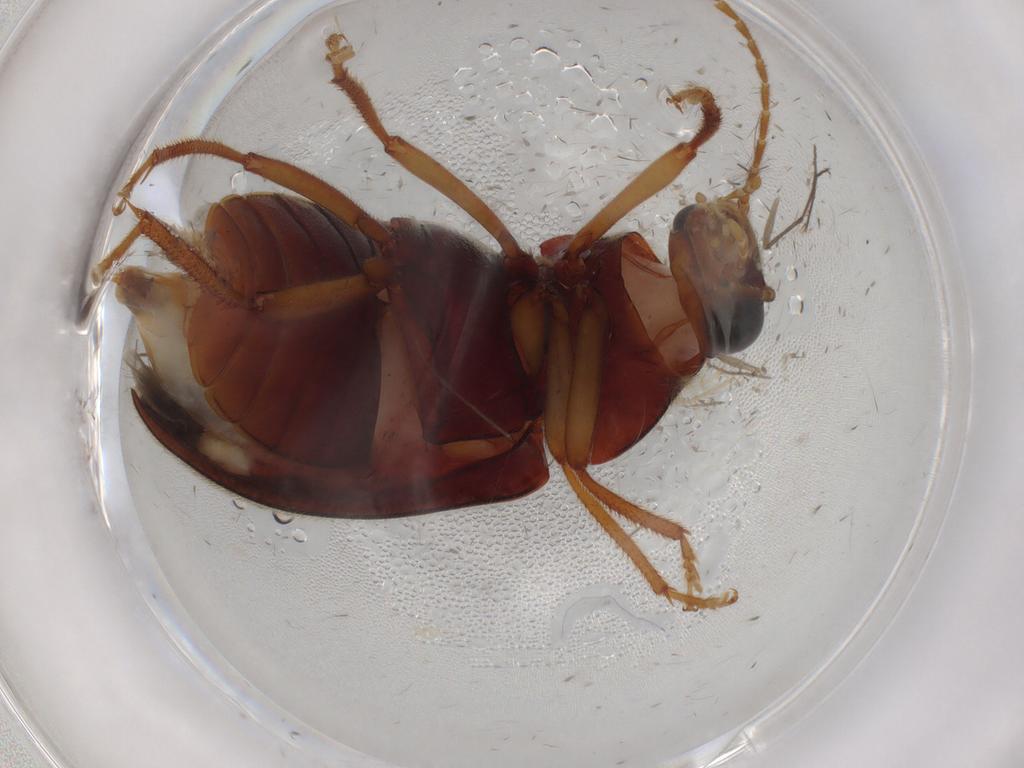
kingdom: Animalia
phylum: Arthropoda
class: Insecta
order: Coleoptera
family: Ptilodactylidae
